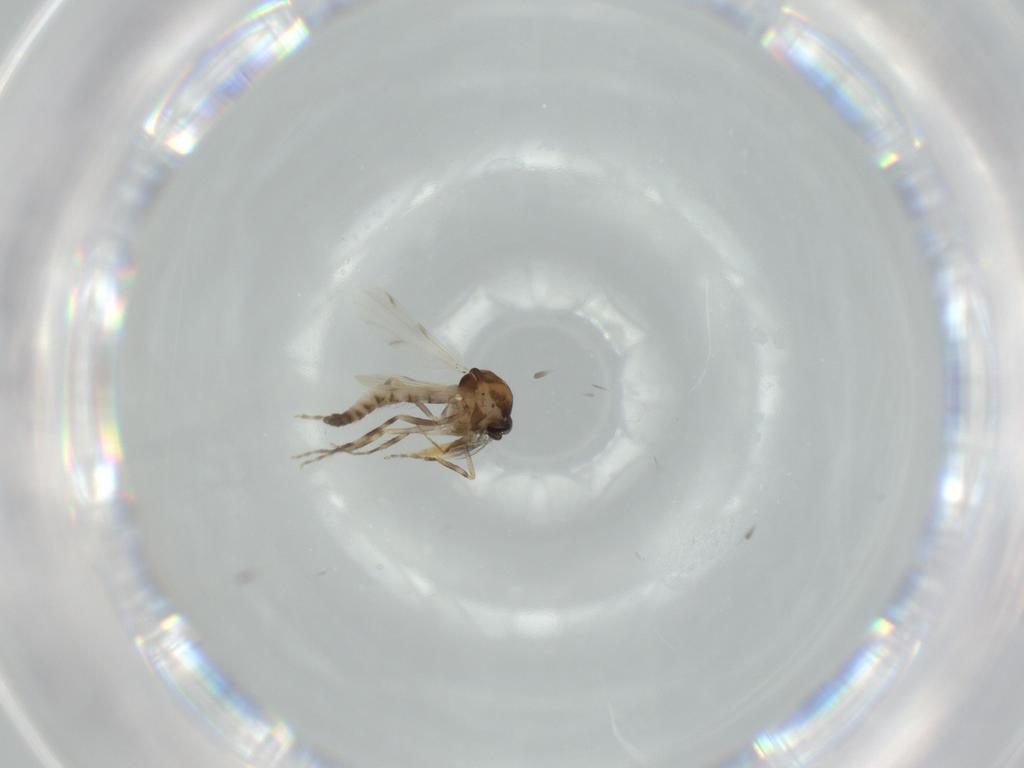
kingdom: Animalia
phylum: Arthropoda
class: Insecta
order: Diptera
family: Ceratopogonidae
